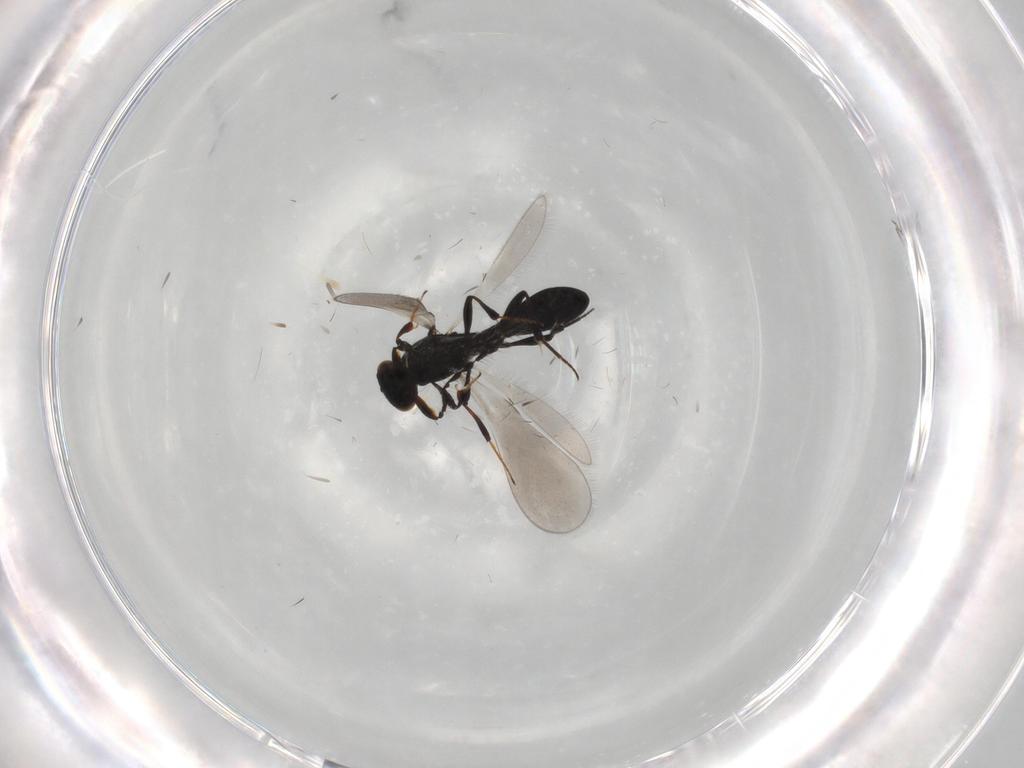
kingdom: Animalia
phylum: Arthropoda
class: Insecta
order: Hymenoptera
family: Platygastridae
